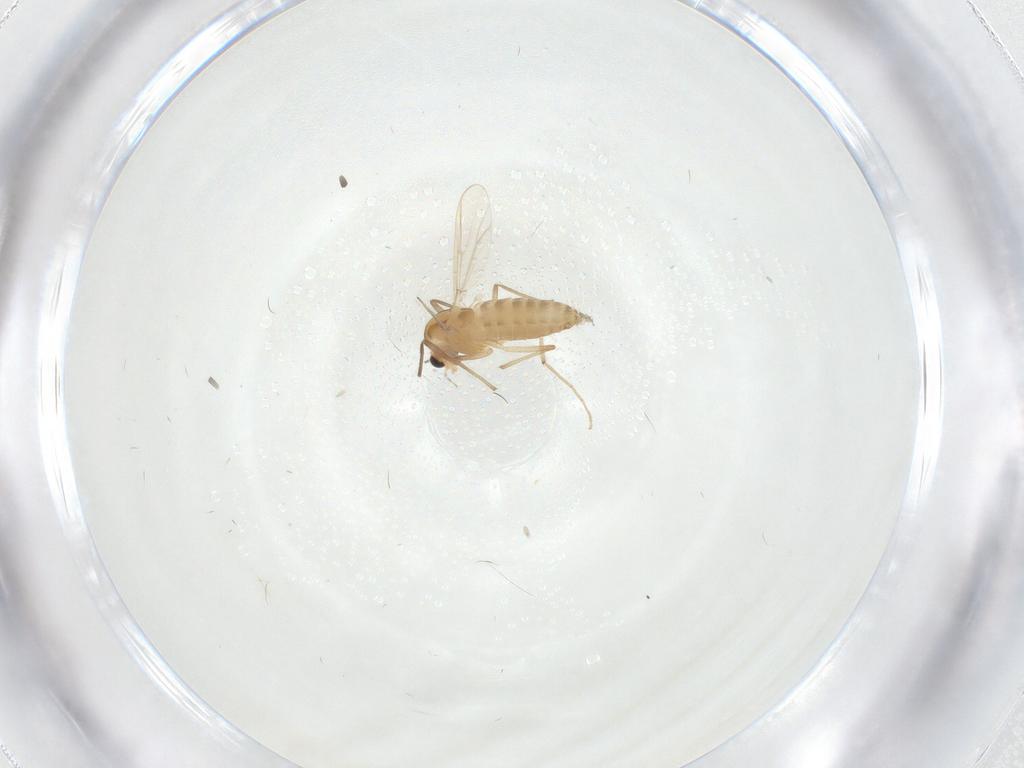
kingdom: Animalia
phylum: Arthropoda
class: Insecta
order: Diptera
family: Chironomidae
